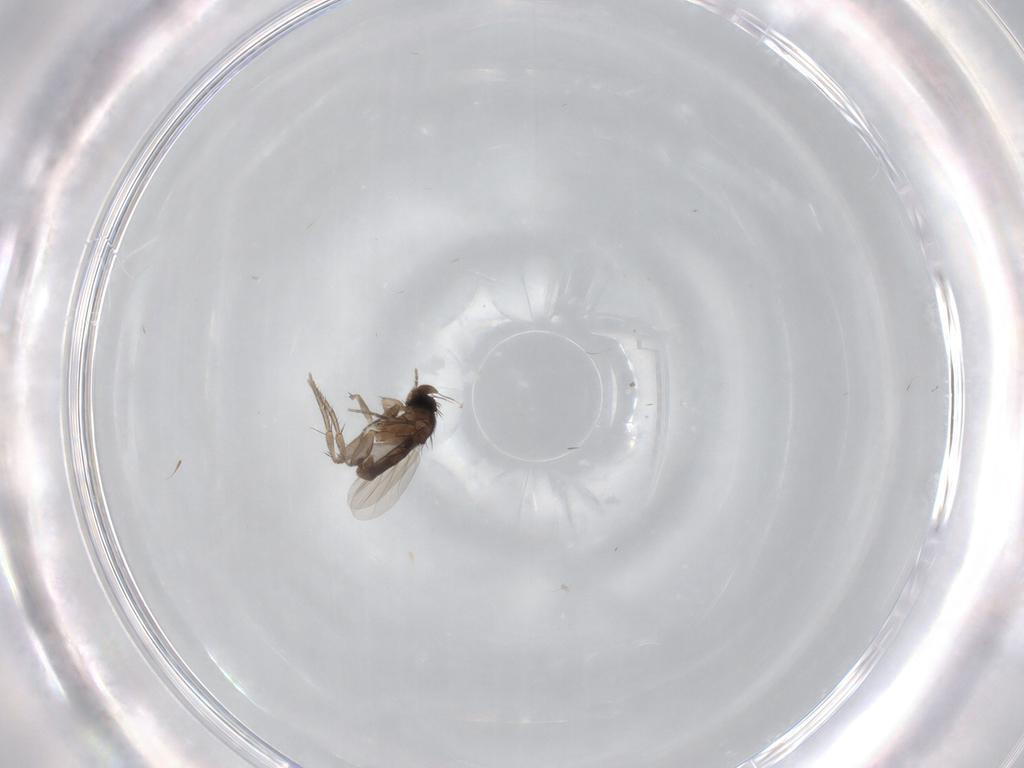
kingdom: Animalia
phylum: Arthropoda
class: Insecta
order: Diptera
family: Phoridae
